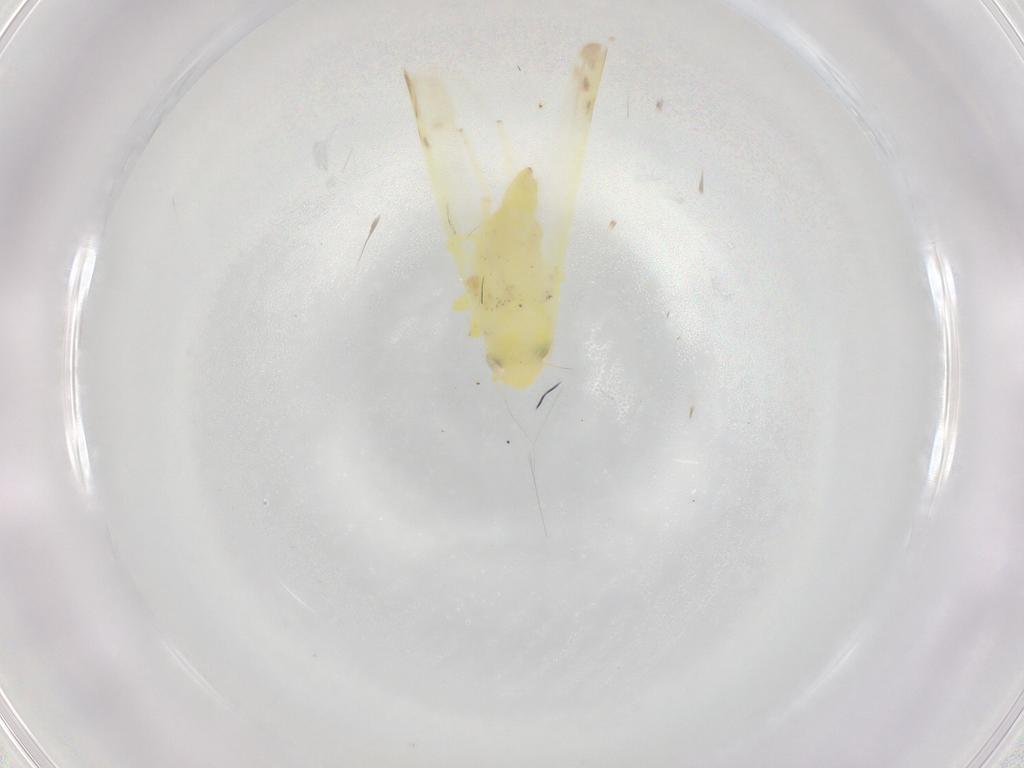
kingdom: Animalia
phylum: Arthropoda
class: Insecta
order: Hemiptera
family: Cicadellidae
